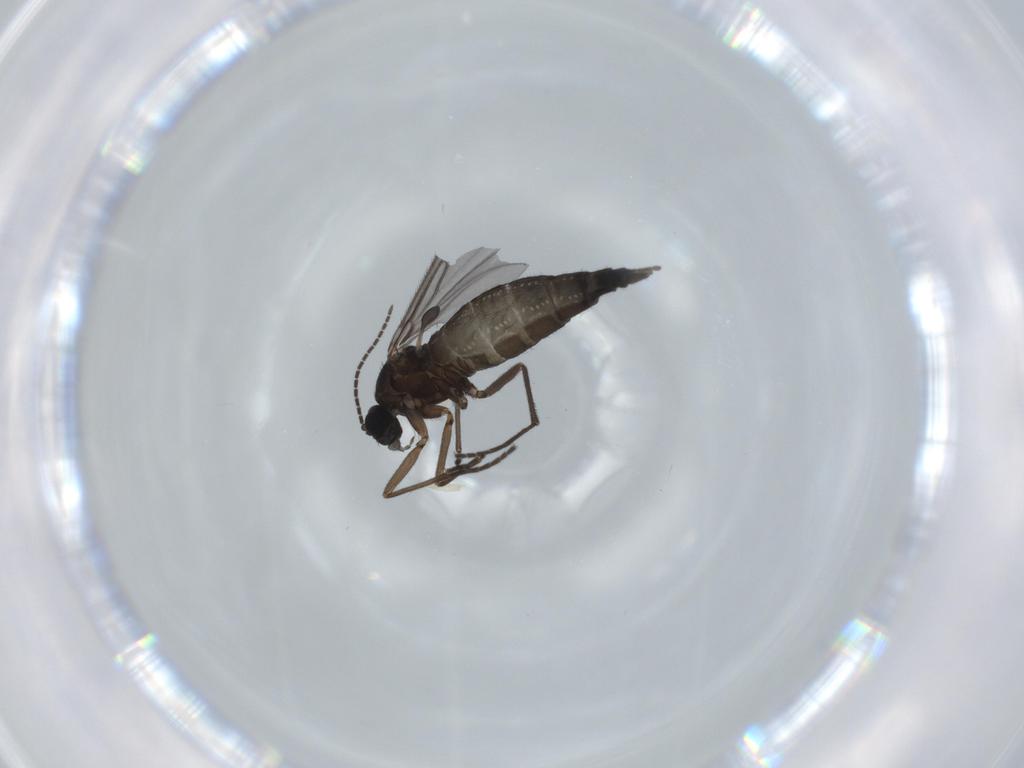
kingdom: Animalia
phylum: Arthropoda
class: Insecta
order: Diptera
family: Sciaridae
